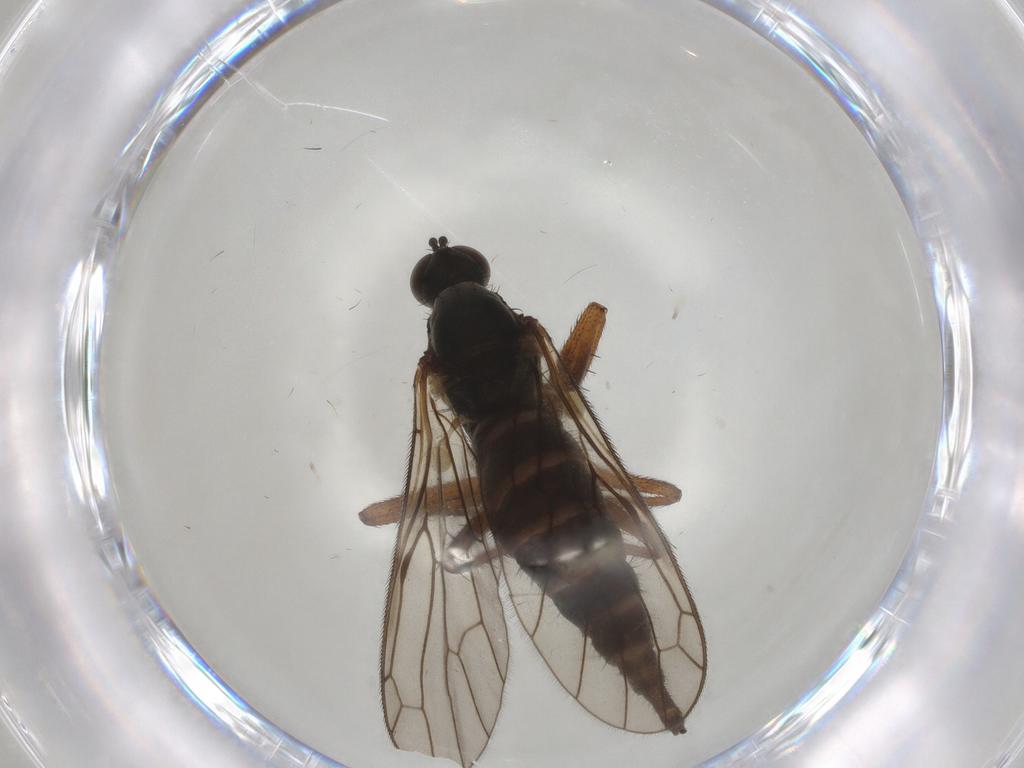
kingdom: Animalia
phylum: Arthropoda
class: Insecta
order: Diptera
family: Chironomidae
